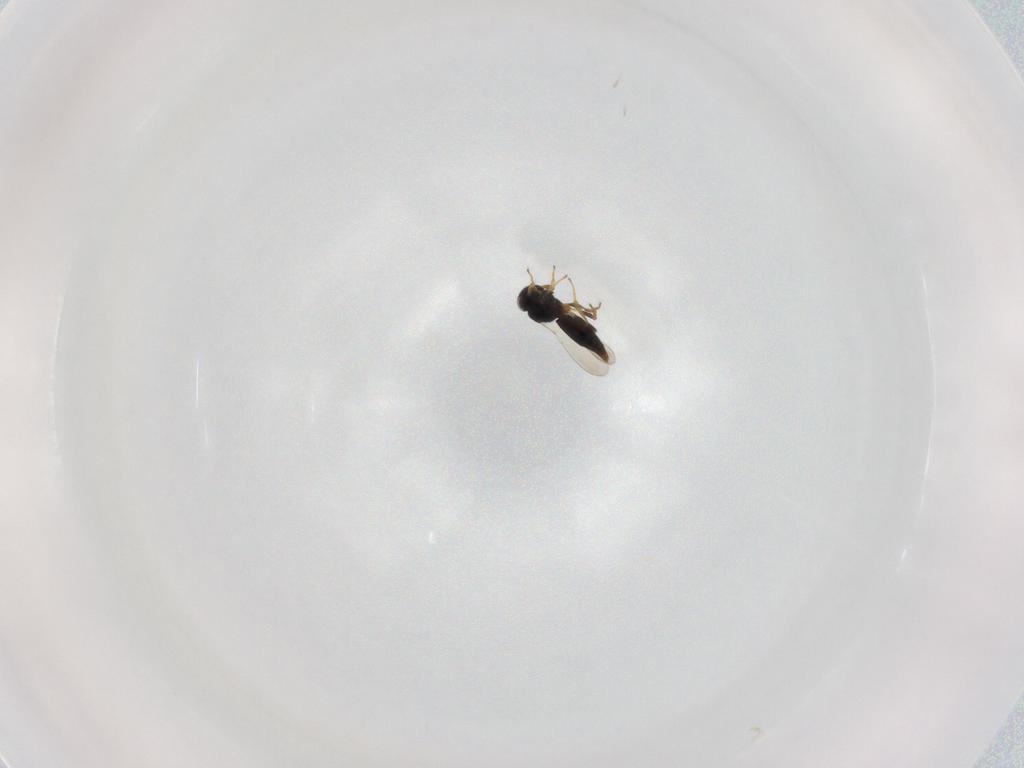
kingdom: Animalia
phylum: Arthropoda
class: Insecta
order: Hymenoptera
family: Platygastridae
